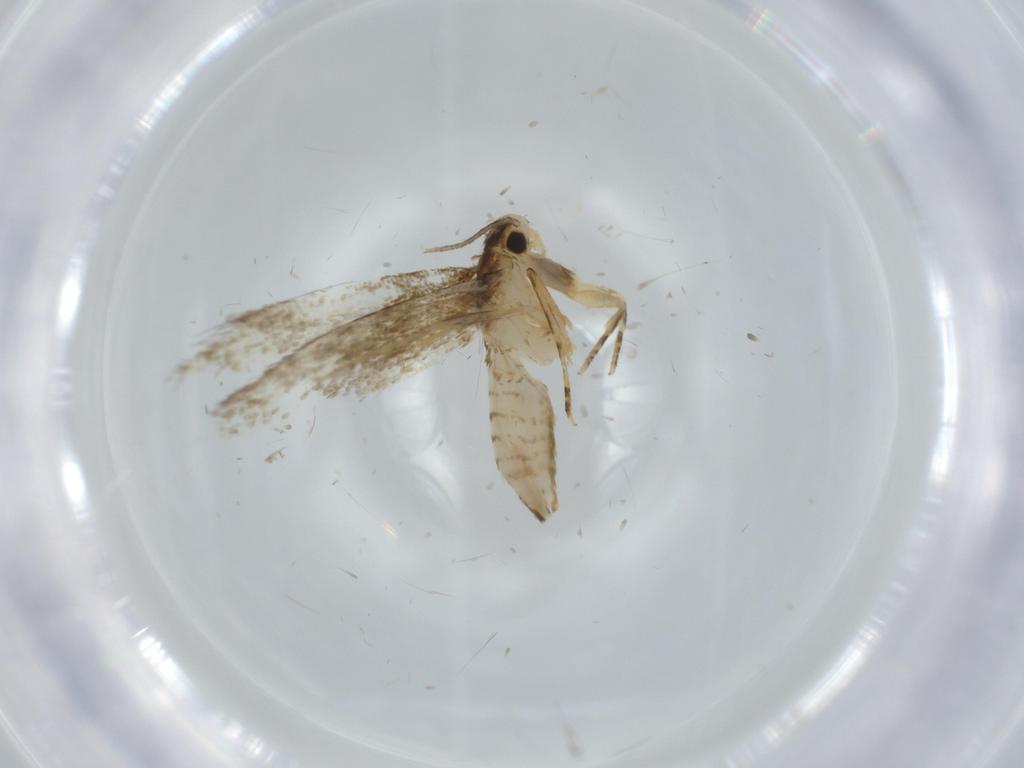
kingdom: Animalia
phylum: Arthropoda
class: Insecta
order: Lepidoptera
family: Tineidae
